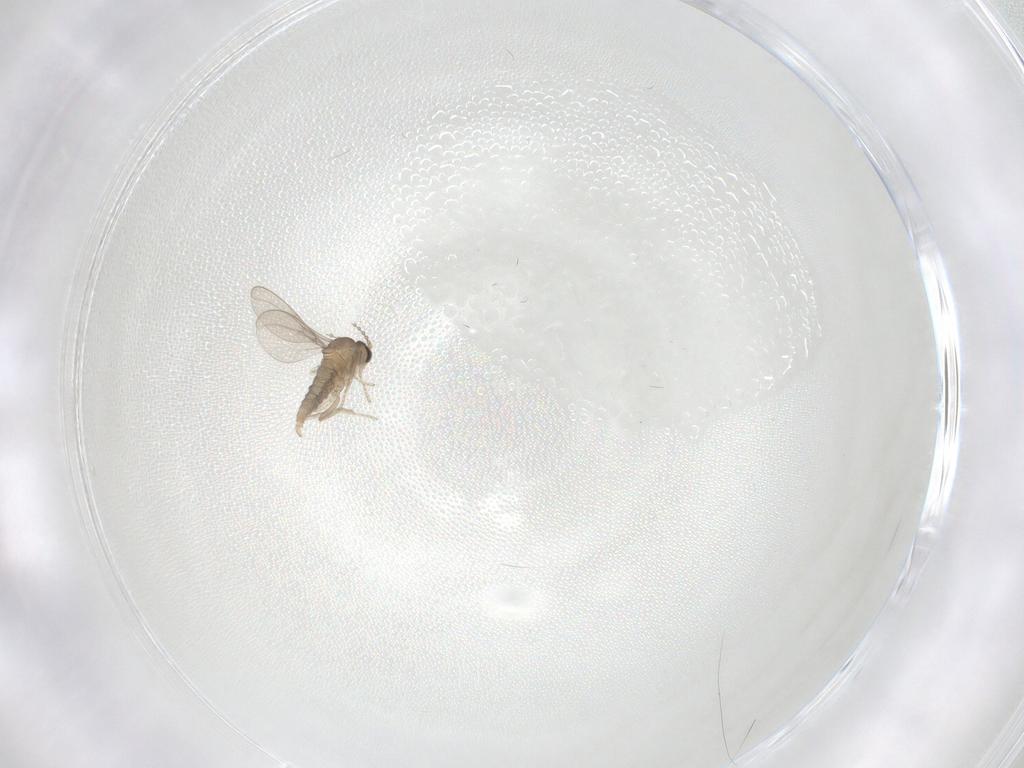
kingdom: Animalia
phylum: Arthropoda
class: Insecta
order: Diptera
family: Cecidomyiidae
